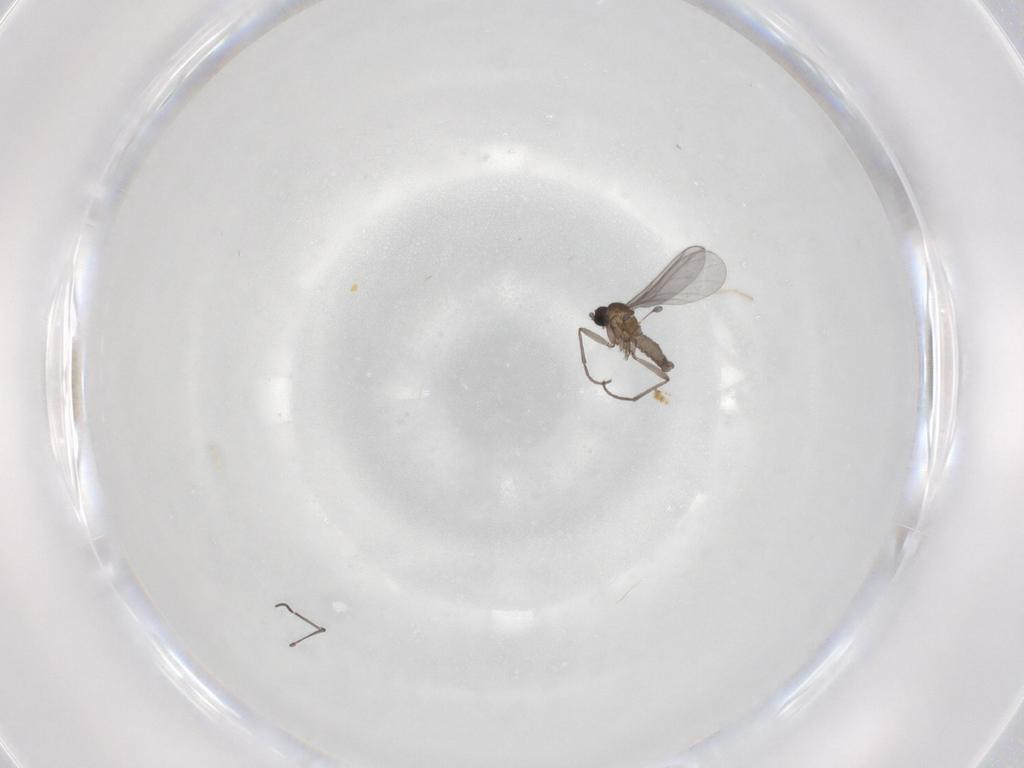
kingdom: Animalia
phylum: Arthropoda
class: Insecta
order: Diptera
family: Sciaridae
